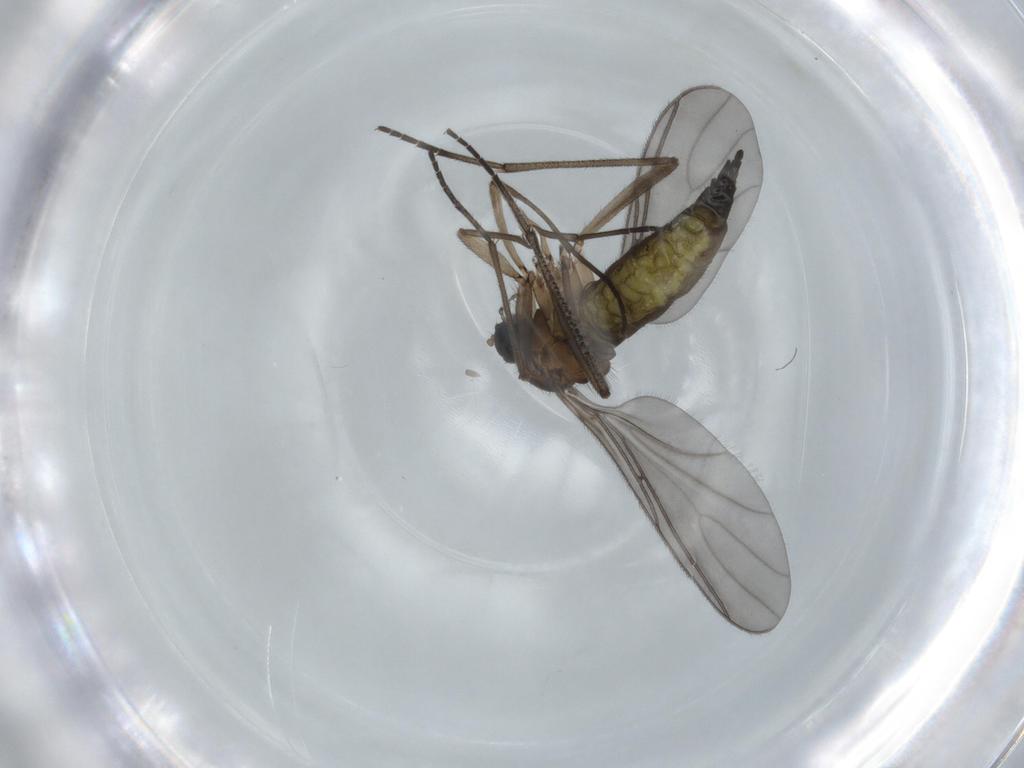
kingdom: Animalia
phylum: Arthropoda
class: Insecta
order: Diptera
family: Sciaridae
